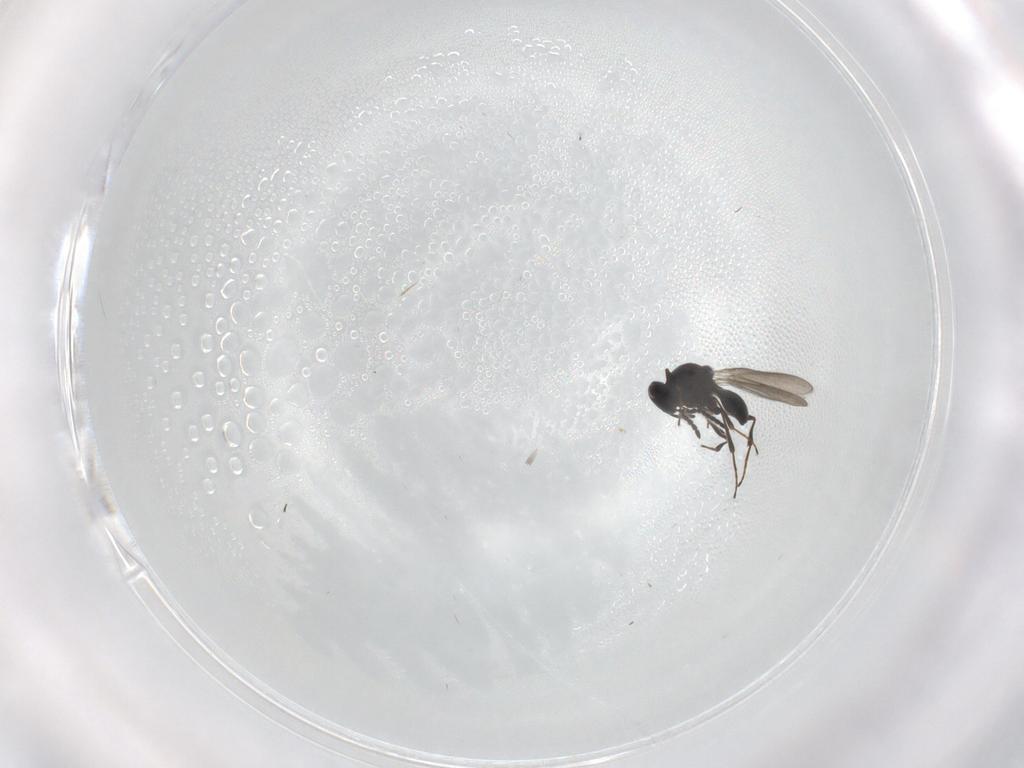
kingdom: Animalia
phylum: Arthropoda
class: Insecta
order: Hymenoptera
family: Platygastridae
